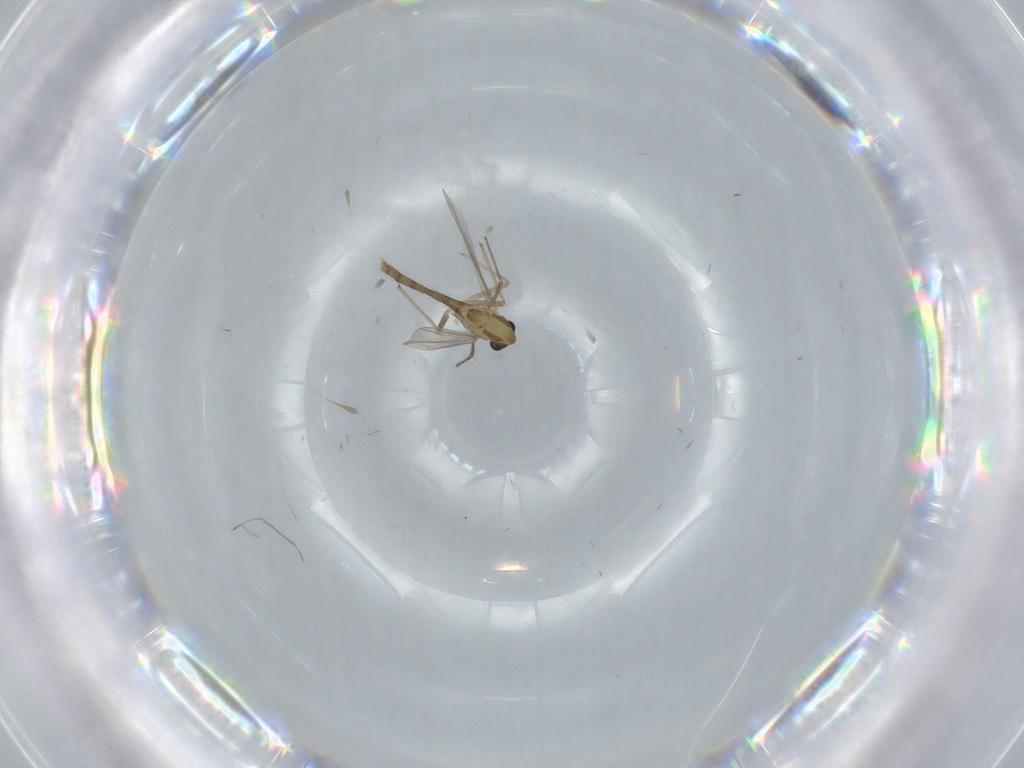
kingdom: Animalia
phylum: Arthropoda
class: Insecta
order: Diptera
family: Chironomidae
